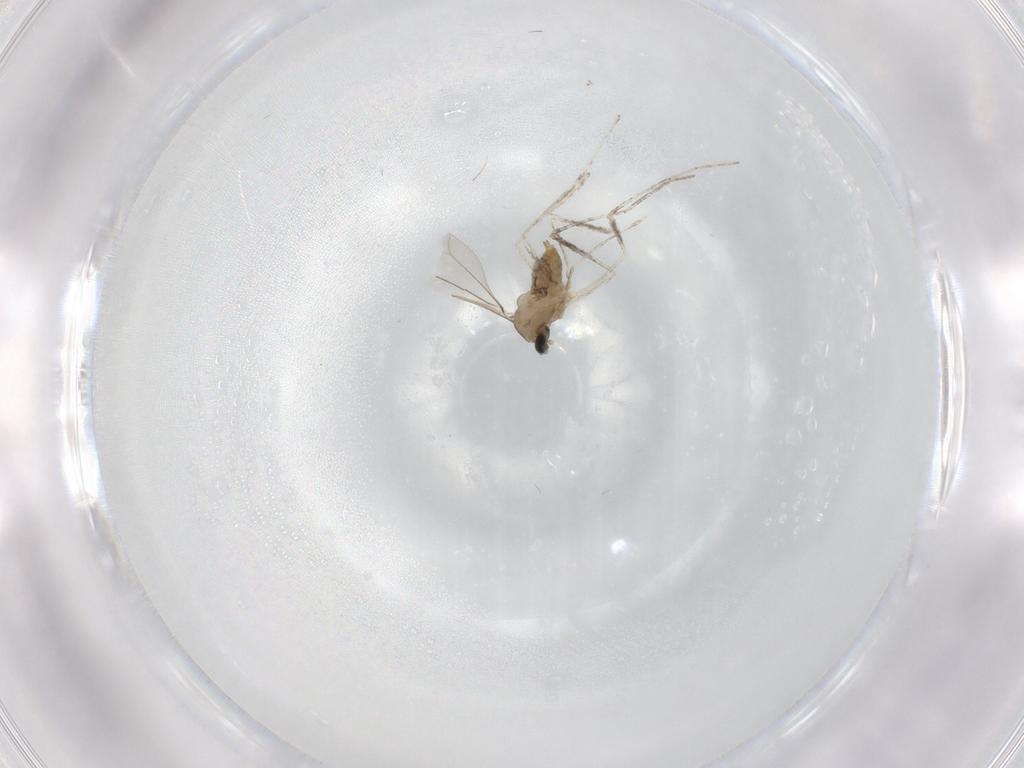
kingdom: Animalia
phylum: Arthropoda
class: Insecta
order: Diptera
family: Cecidomyiidae
